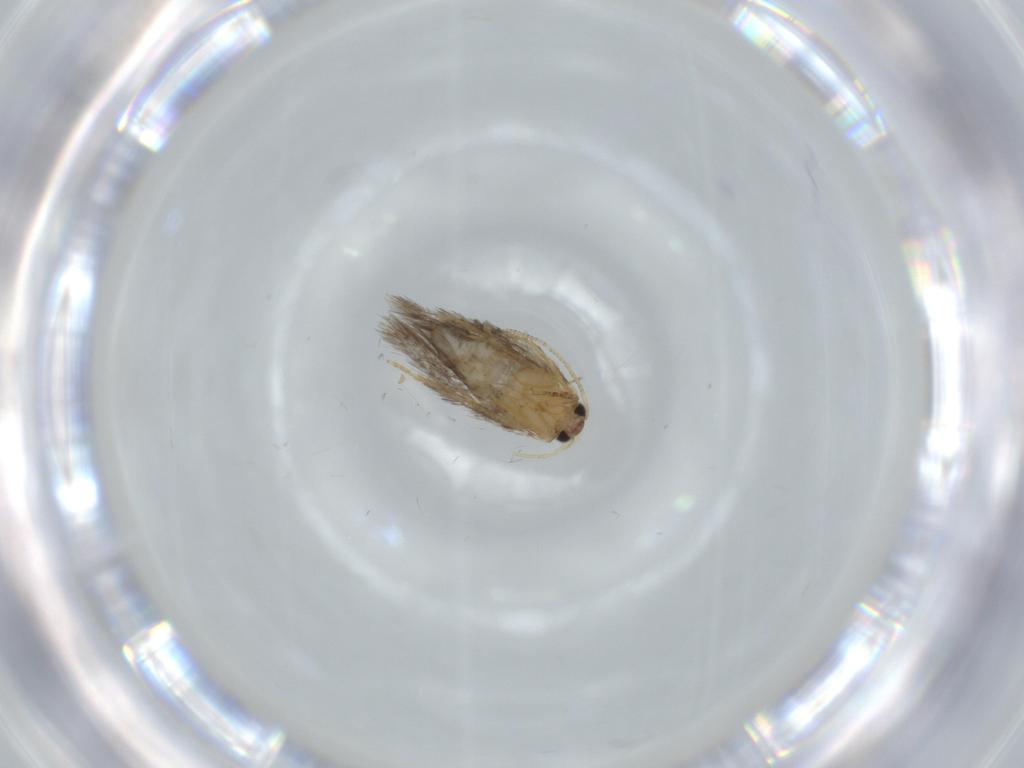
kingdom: Animalia
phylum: Arthropoda
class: Insecta
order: Lepidoptera
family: Nepticulidae
